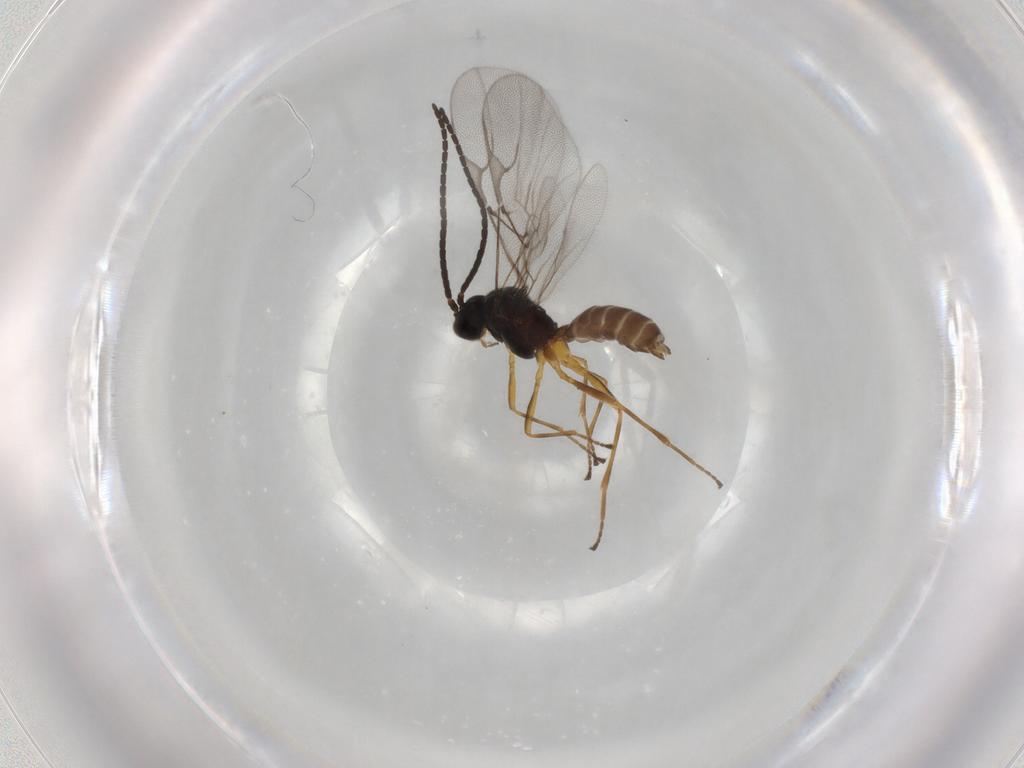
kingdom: Animalia
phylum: Arthropoda
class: Insecta
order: Hymenoptera
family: Braconidae
